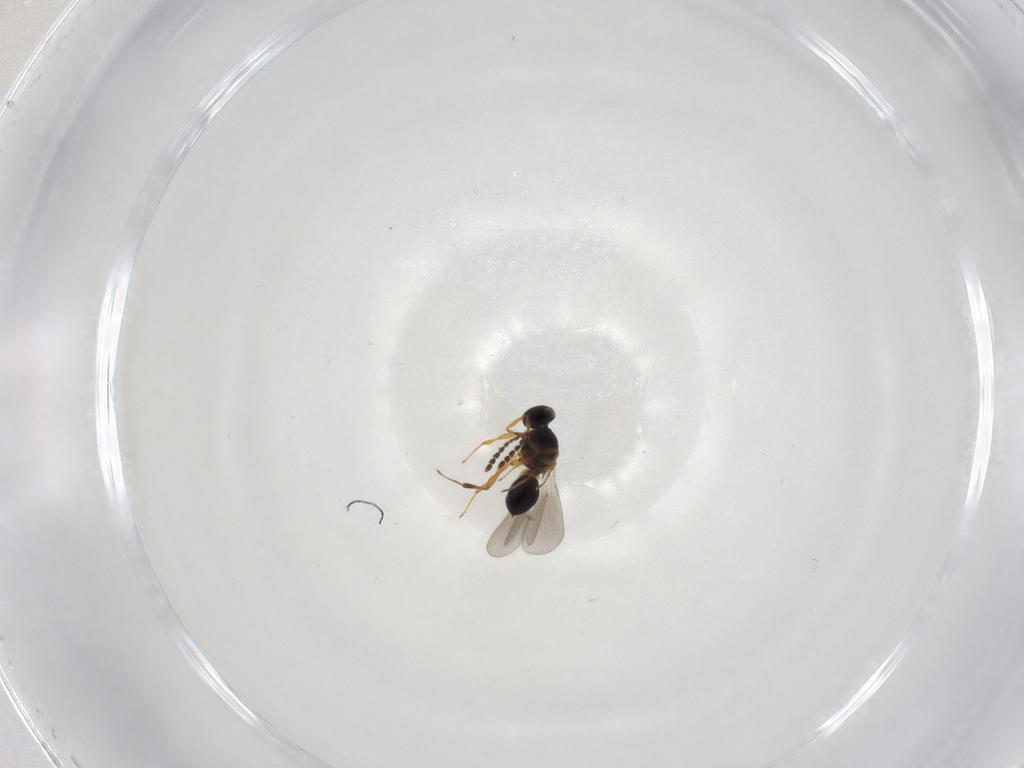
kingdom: Animalia
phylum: Arthropoda
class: Insecta
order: Hymenoptera
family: Platygastridae
